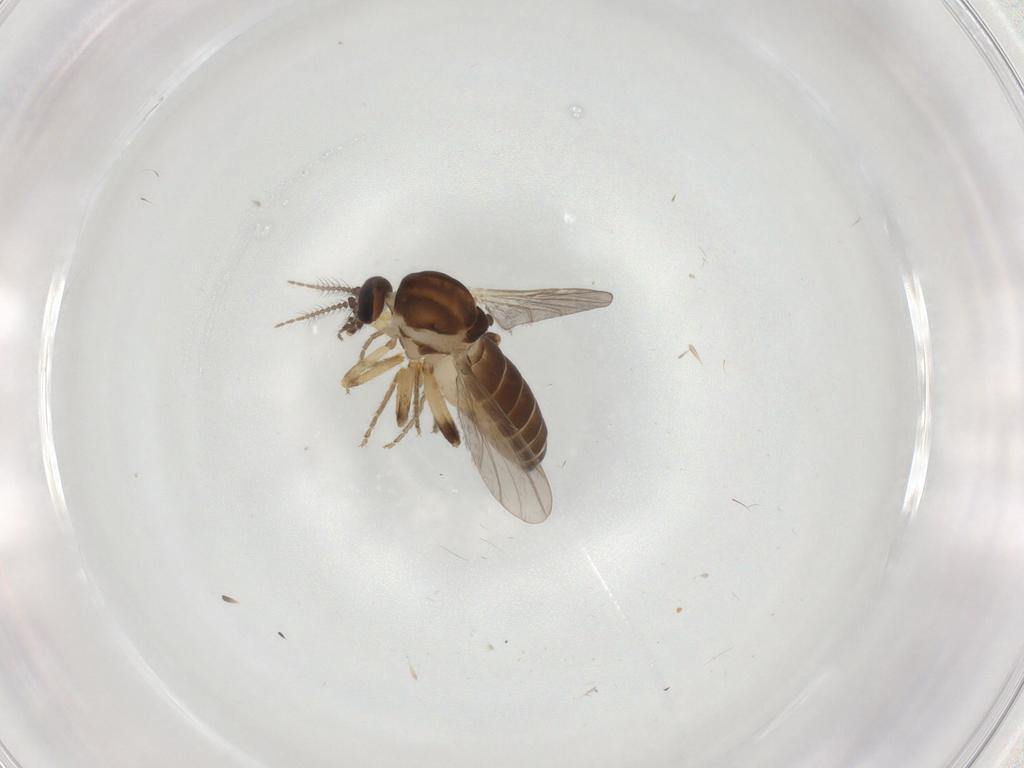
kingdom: Animalia
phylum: Arthropoda
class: Insecta
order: Diptera
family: Ceratopogonidae
